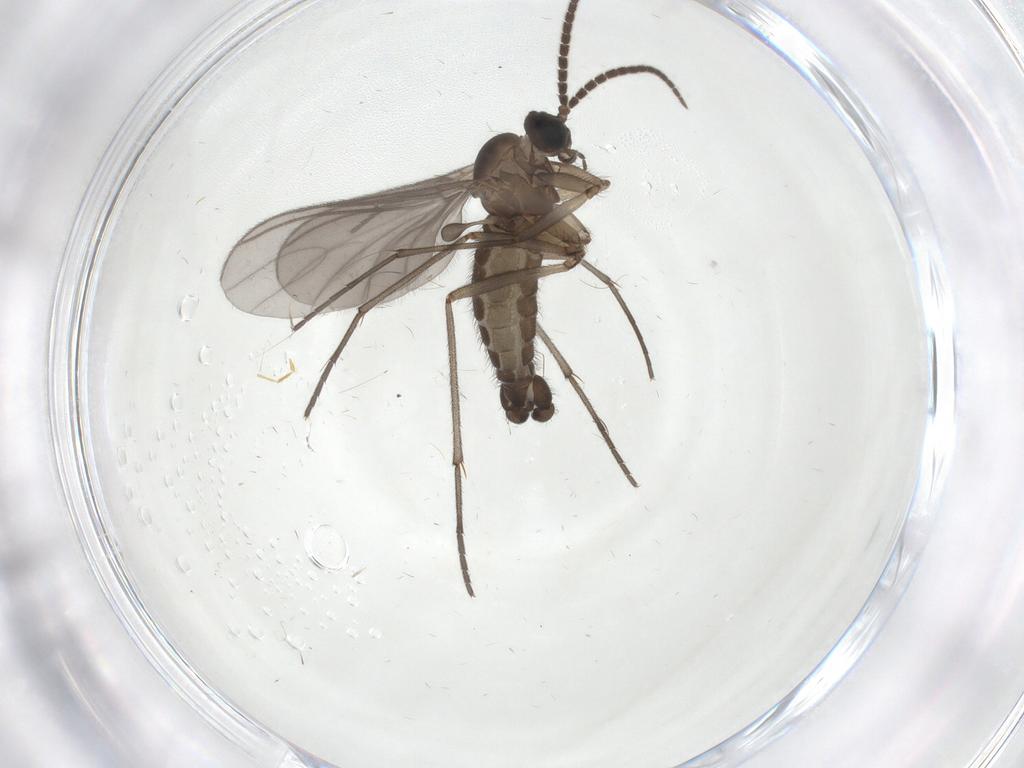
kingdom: Animalia
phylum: Arthropoda
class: Insecta
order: Diptera
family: Sciaridae
